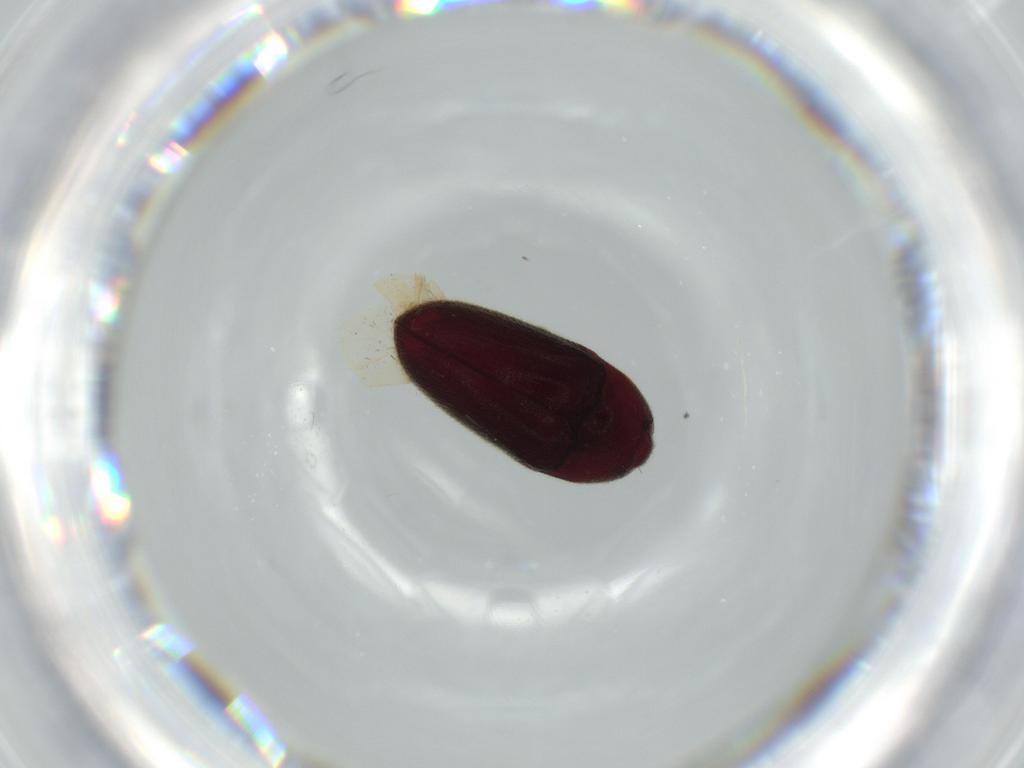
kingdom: Animalia
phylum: Arthropoda
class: Insecta
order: Coleoptera
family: Throscidae
